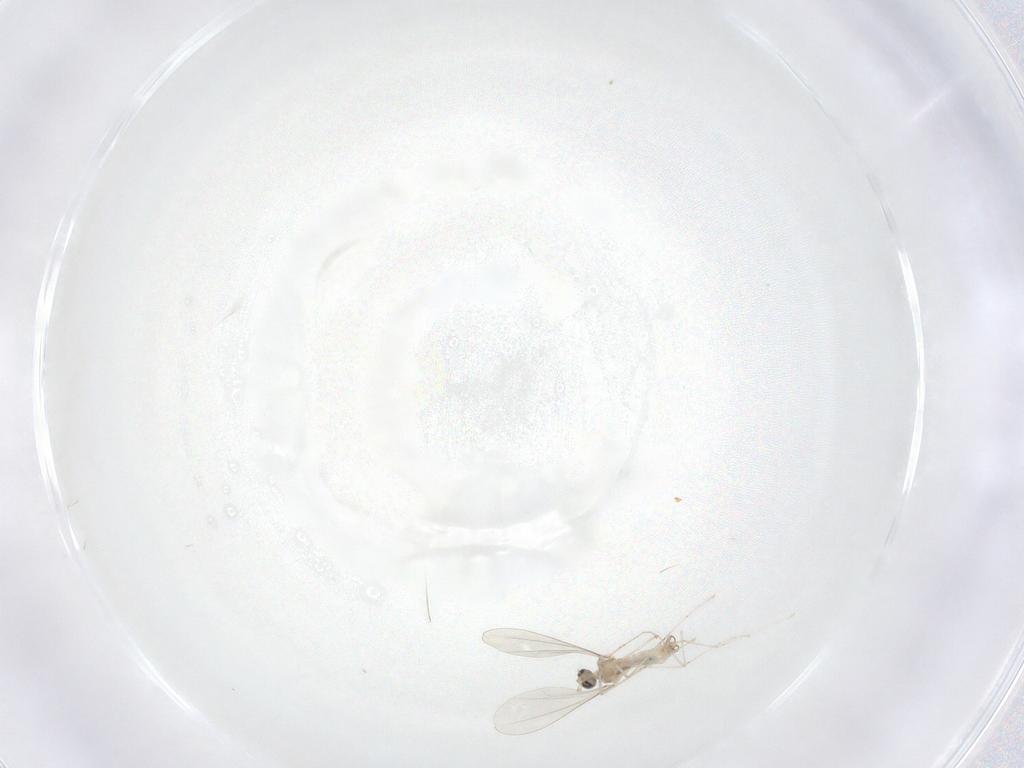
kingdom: Animalia
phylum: Arthropoda
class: Insecta
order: Diptera
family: Cecidomyiidae
